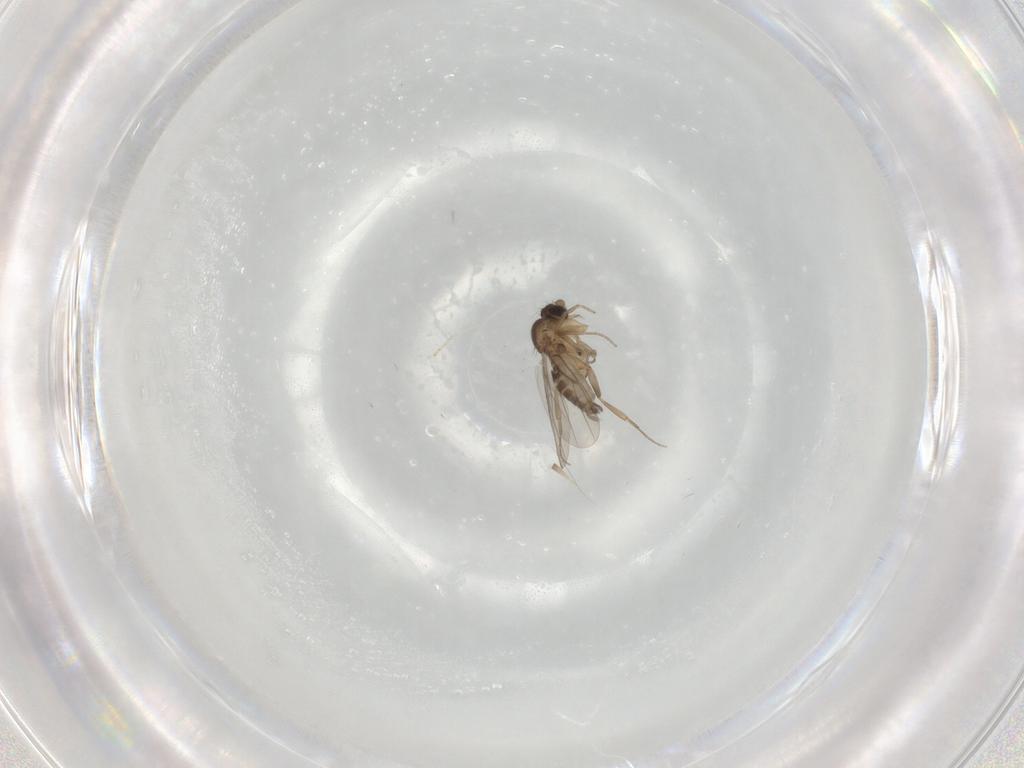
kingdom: Animalia
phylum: Arthropoda
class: Insecta
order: Diptera
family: Phoridae
